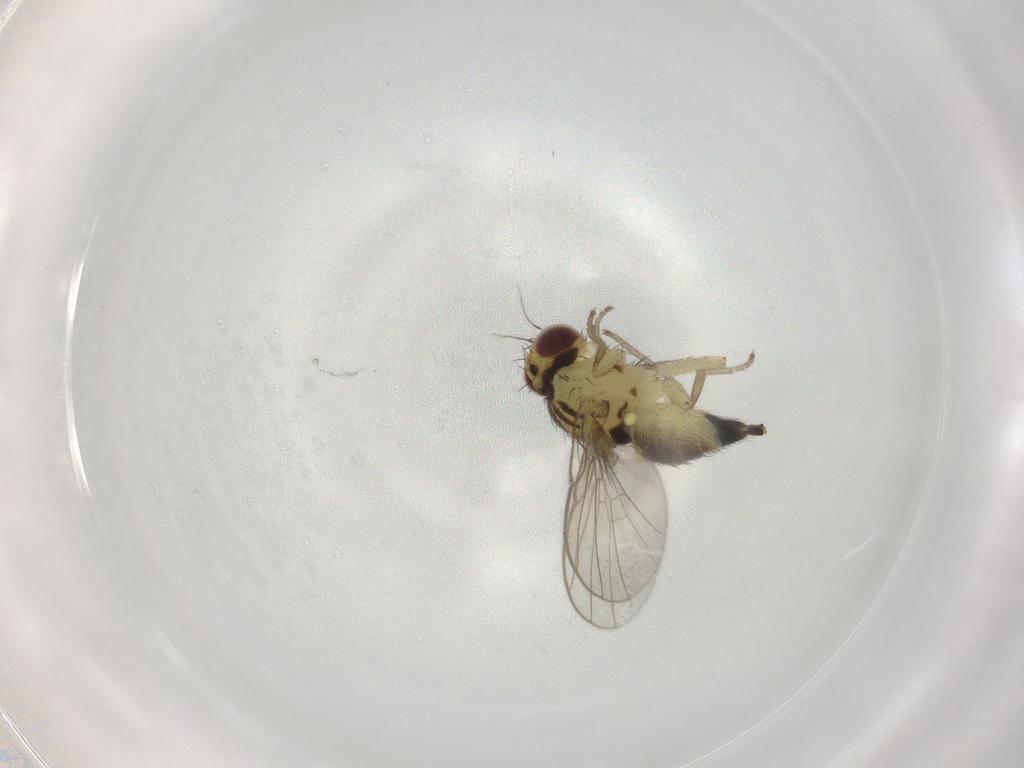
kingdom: Animalia
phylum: Arthropoda
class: Insecta
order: Diptera
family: Agromyzidae
